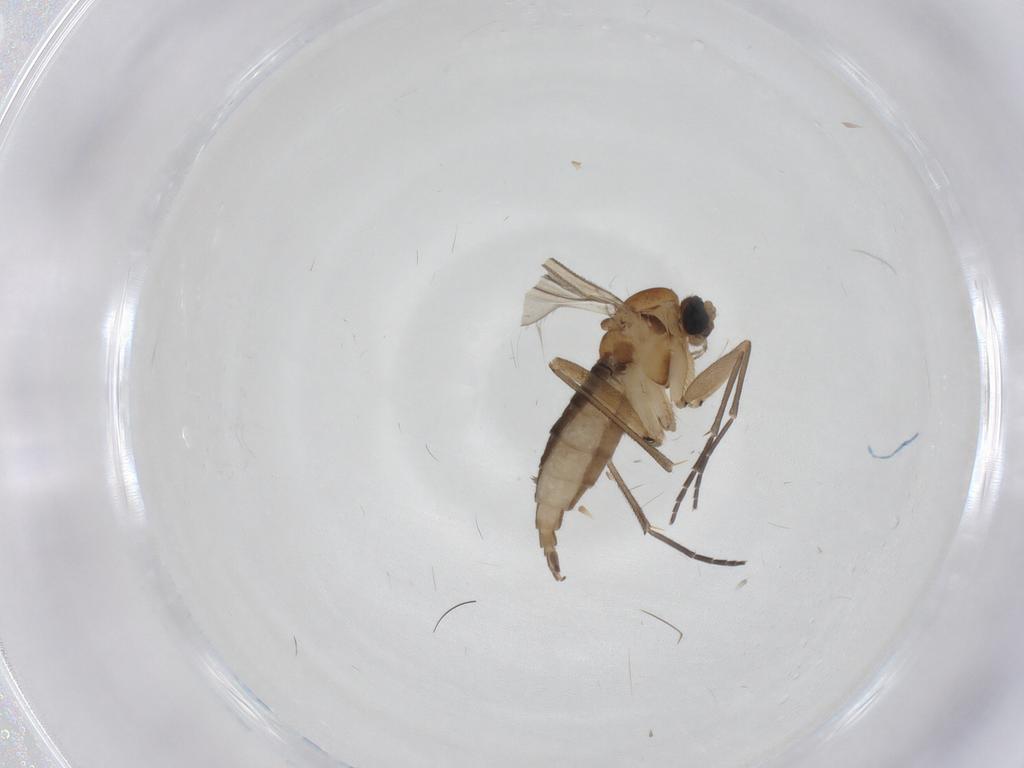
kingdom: Animalia
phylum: Arthropoda
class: Insecta
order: Diptera
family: Sciaridae
